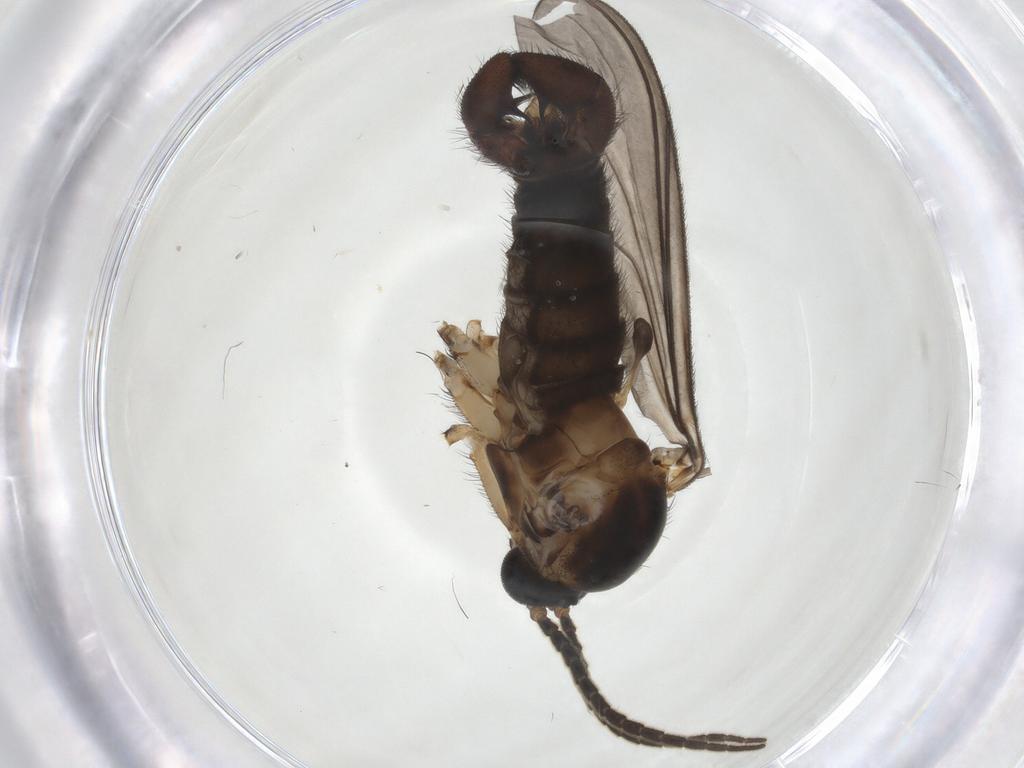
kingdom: Animalia
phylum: Arthropoda
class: Insecta
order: Diptera
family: Sciaridae
